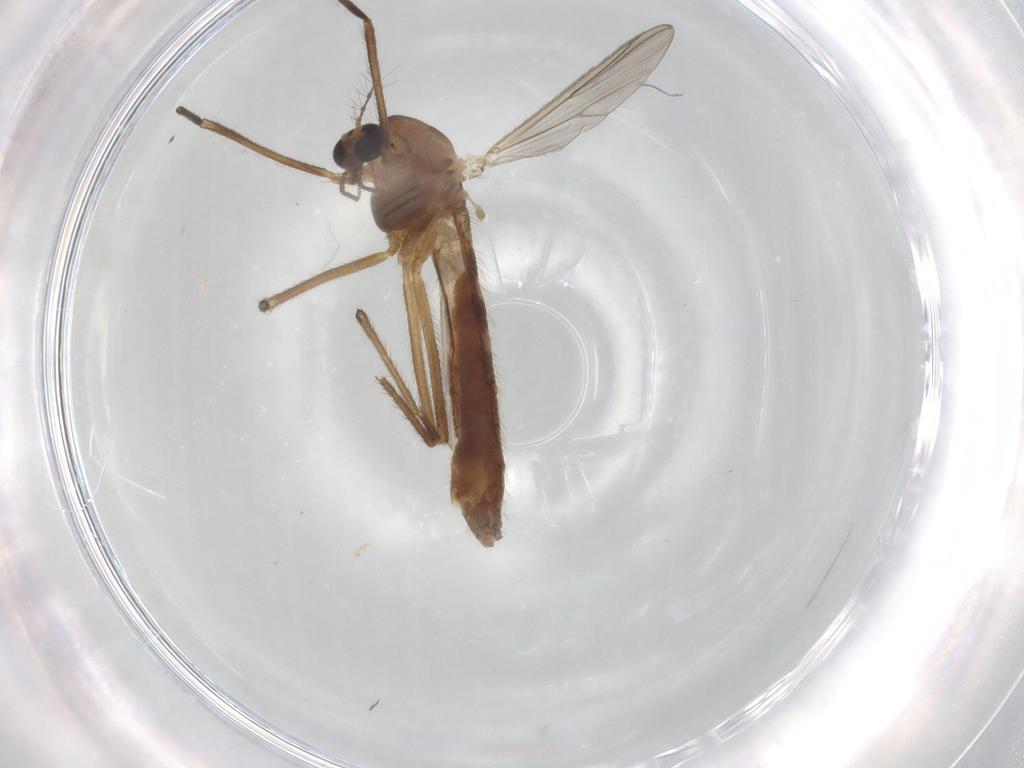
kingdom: Animalia
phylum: Arthropoda
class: Insecta
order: Diptera
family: Chironomidae
